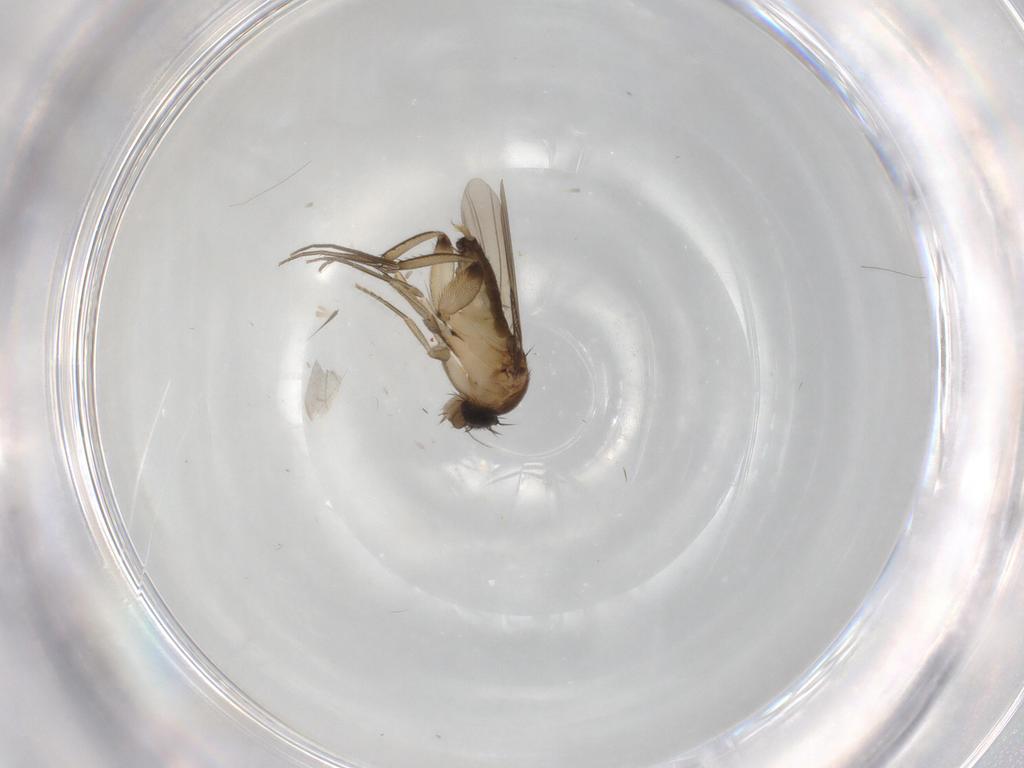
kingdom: Animalia
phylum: Arthropoda
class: Insecta
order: Diptera
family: Phoridae
